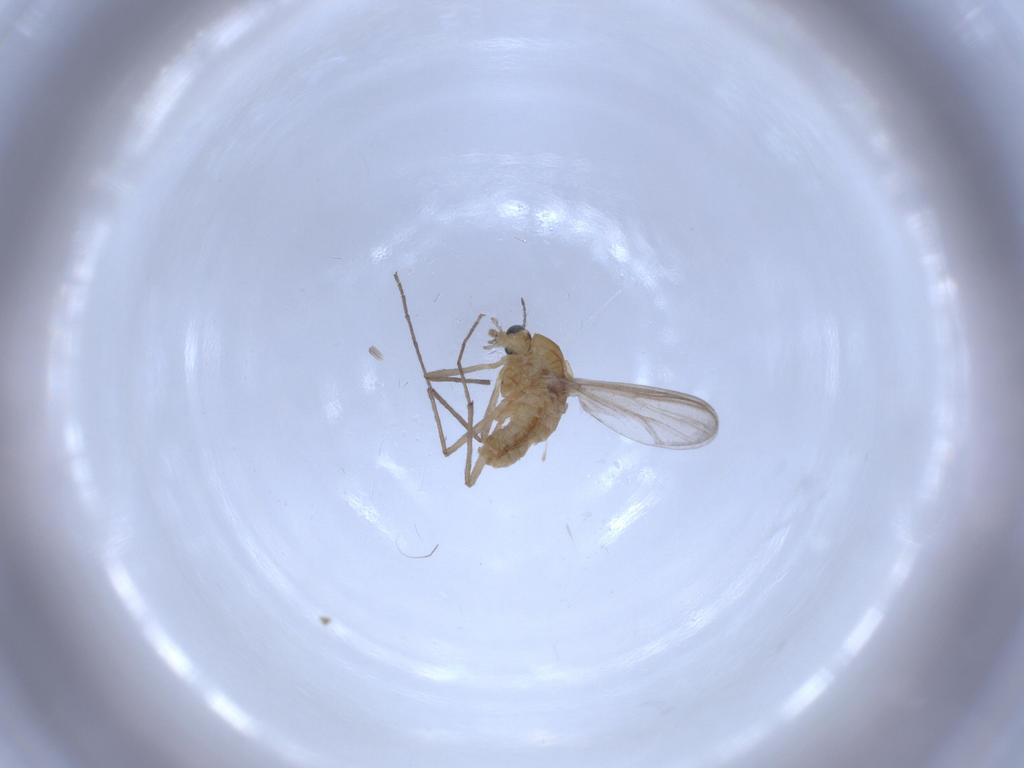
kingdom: Animalia
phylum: Arthropoda
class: Insecta
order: Diptera
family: Chironomidae
